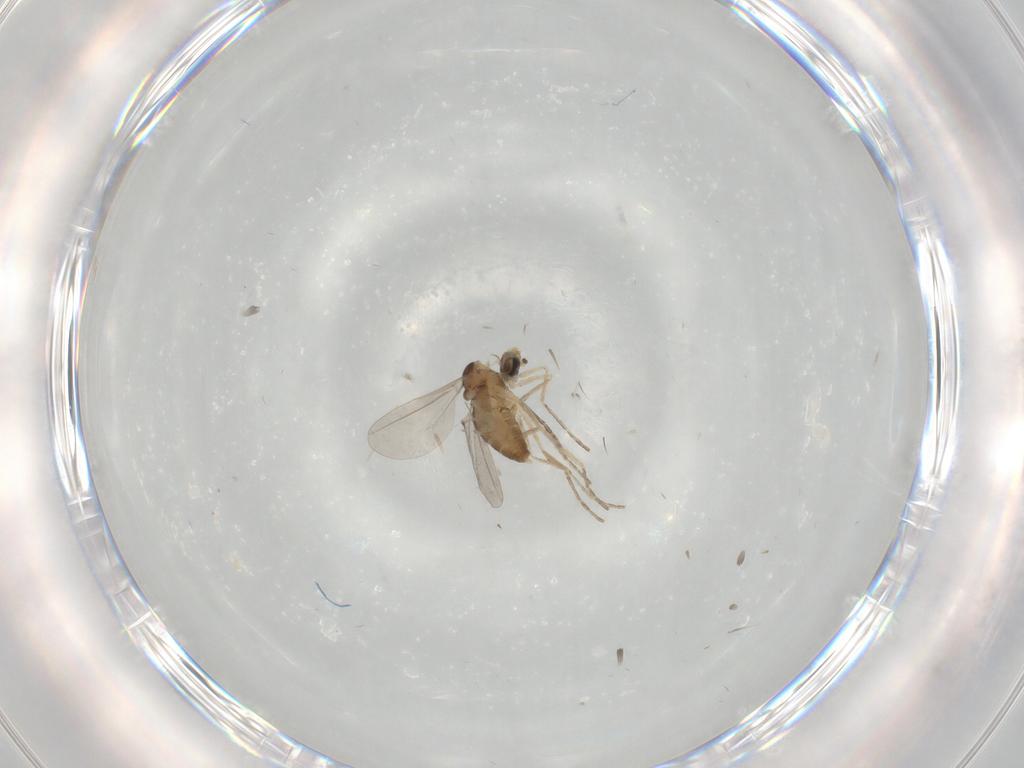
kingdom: Animalia
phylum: Arthropoda
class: Insecta
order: Diptera
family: Cecidomyiidae
